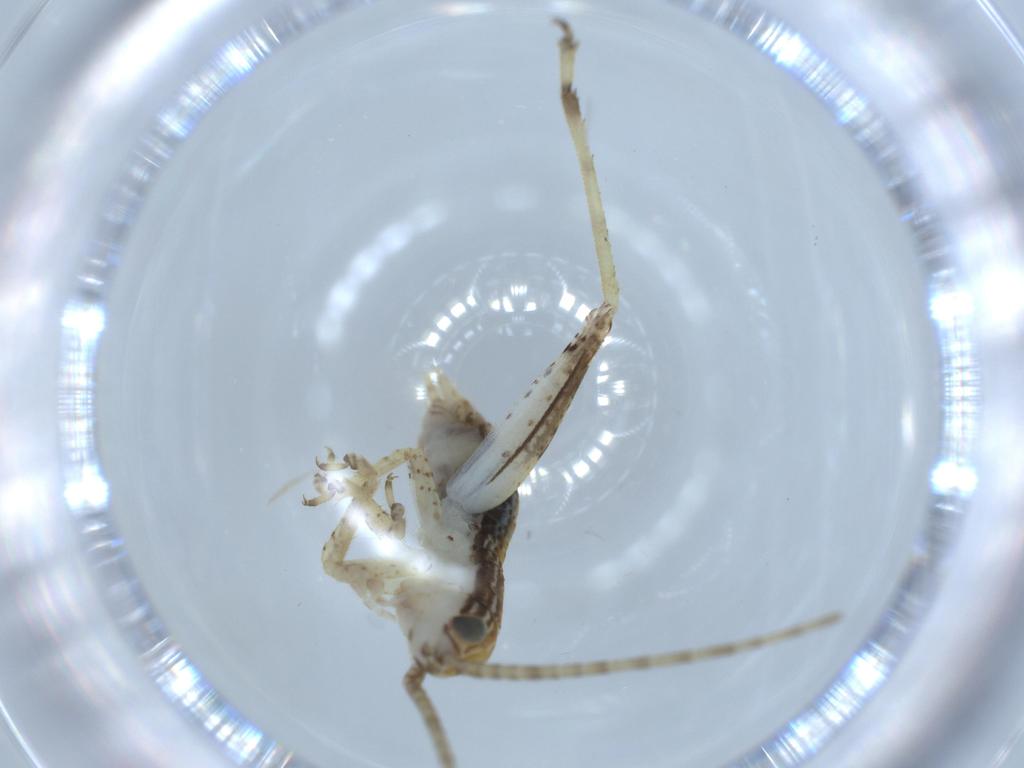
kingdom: Animalia
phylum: Arthropoda
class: Insecta
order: Orthoptera
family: Gryllidae
